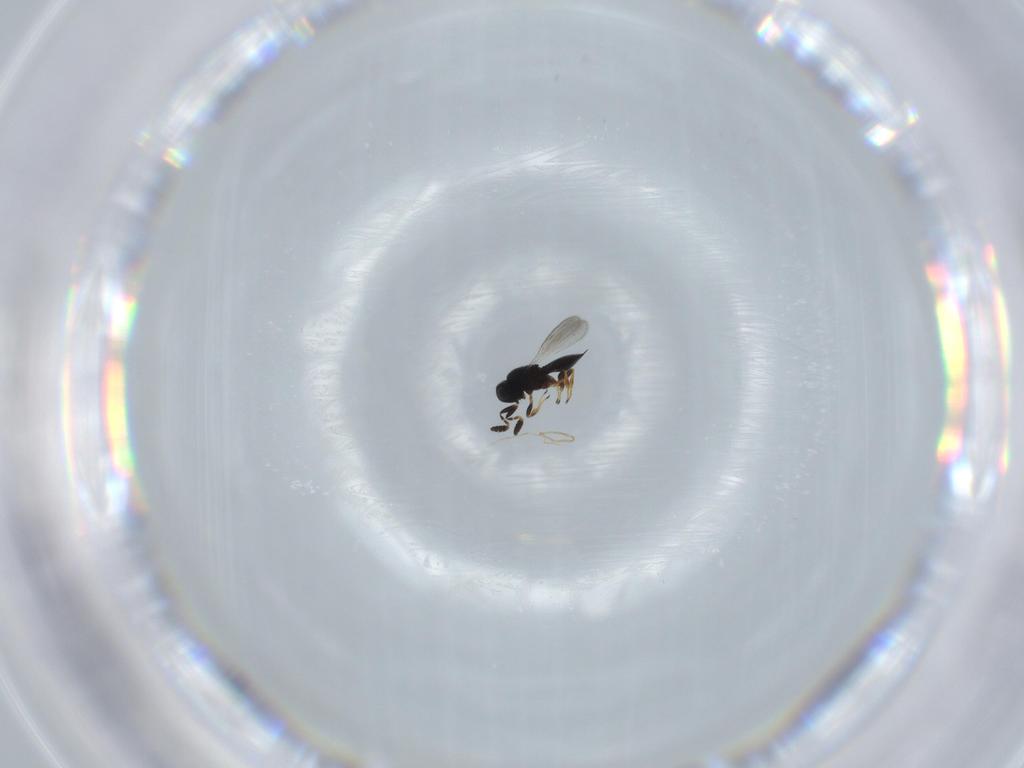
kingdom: Animalia
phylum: Arthropoda
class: Insecta
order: Hymenoptera
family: Scelionidae
